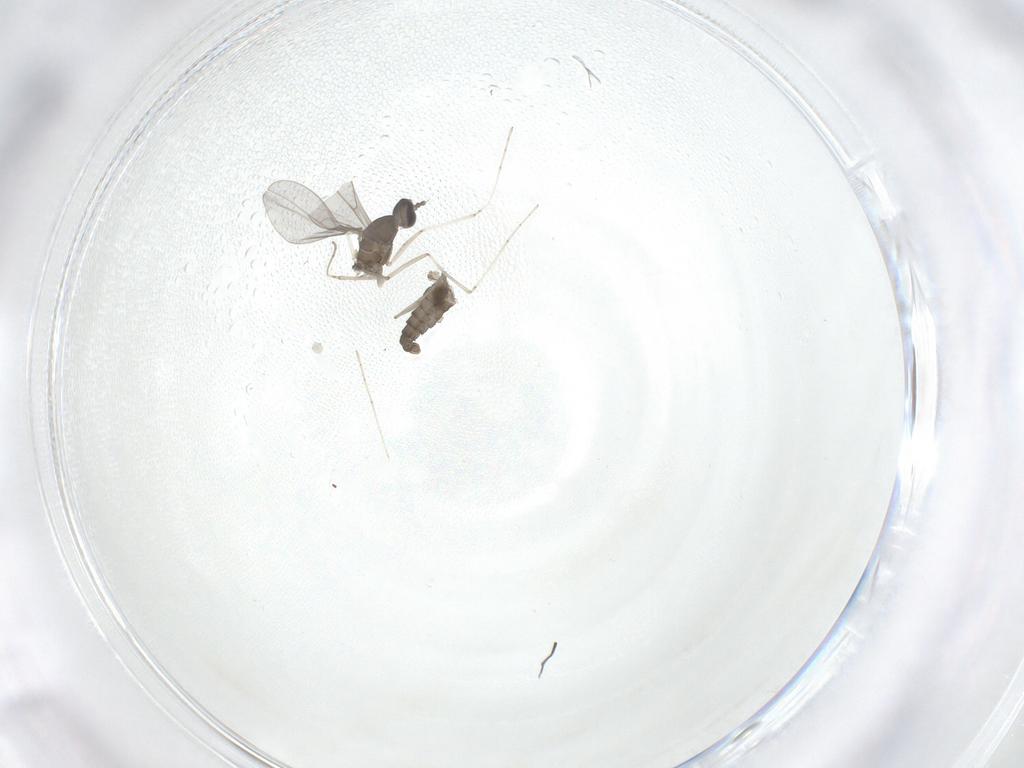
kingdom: Animalia
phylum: Arthropoda
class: Insecta
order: Diptera
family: Cecidomyiidae
